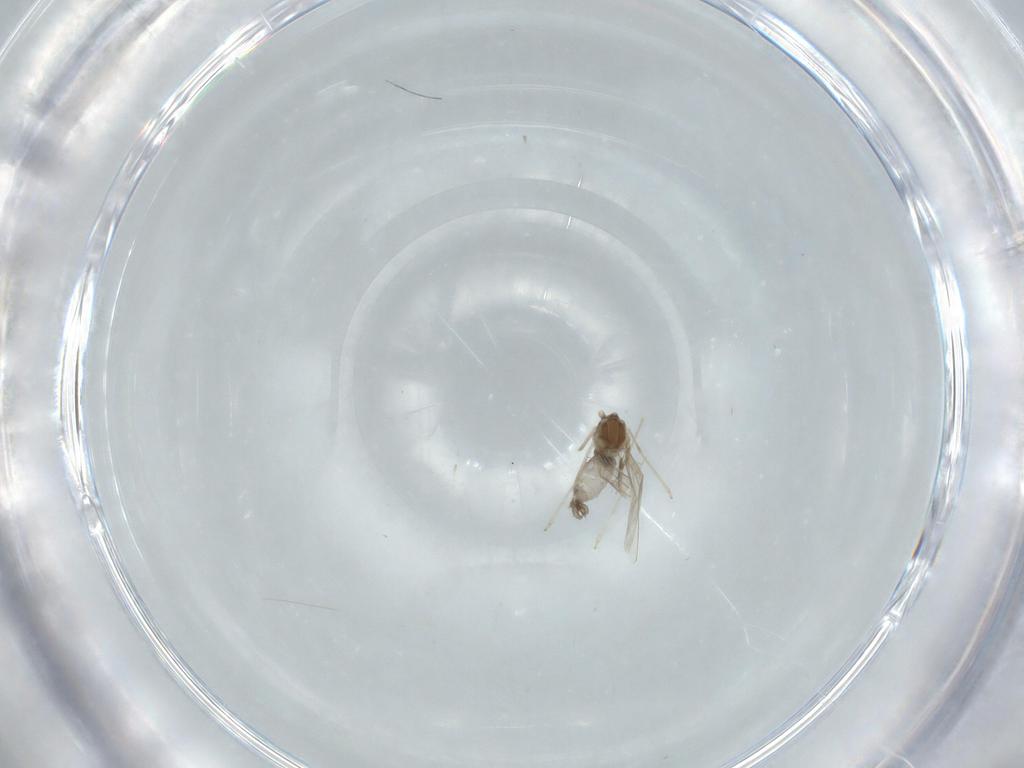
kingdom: Animalia
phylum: Arthropoda
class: Insecta
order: Diptera
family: Cecidomyiidae
